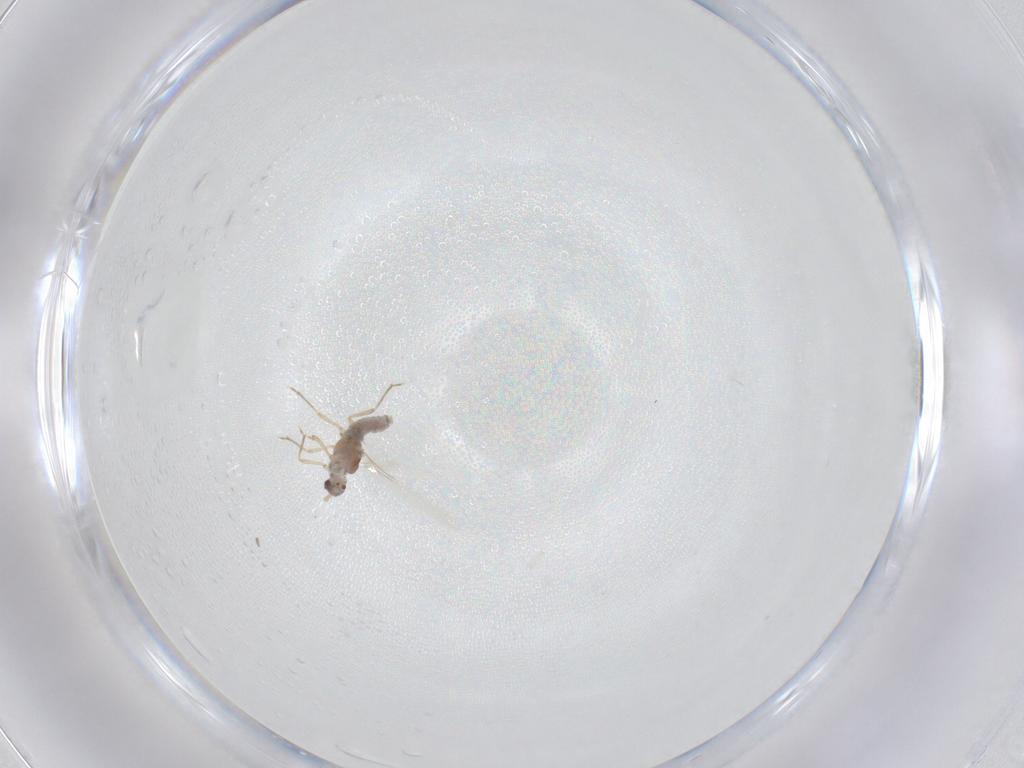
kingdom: Animalia
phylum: Arthropoda
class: Insecta
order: Hemiptera
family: Pseudococcidae
